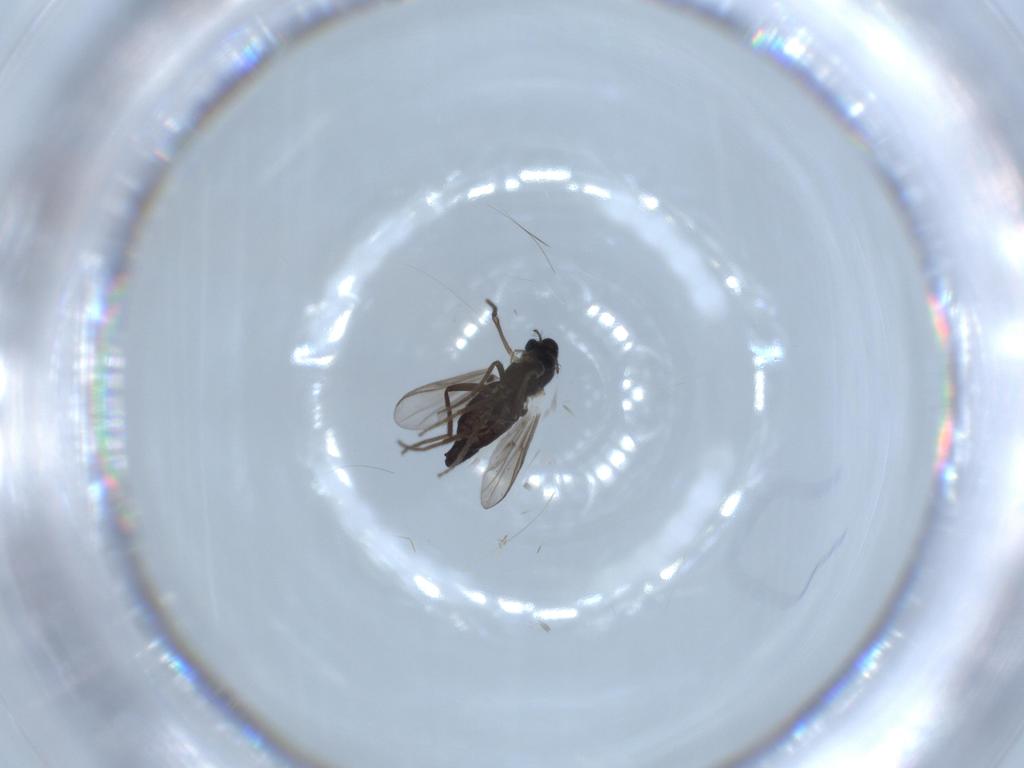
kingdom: Animalia
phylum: Arthropoda
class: Insecta
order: Diptera
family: Chironomidae
